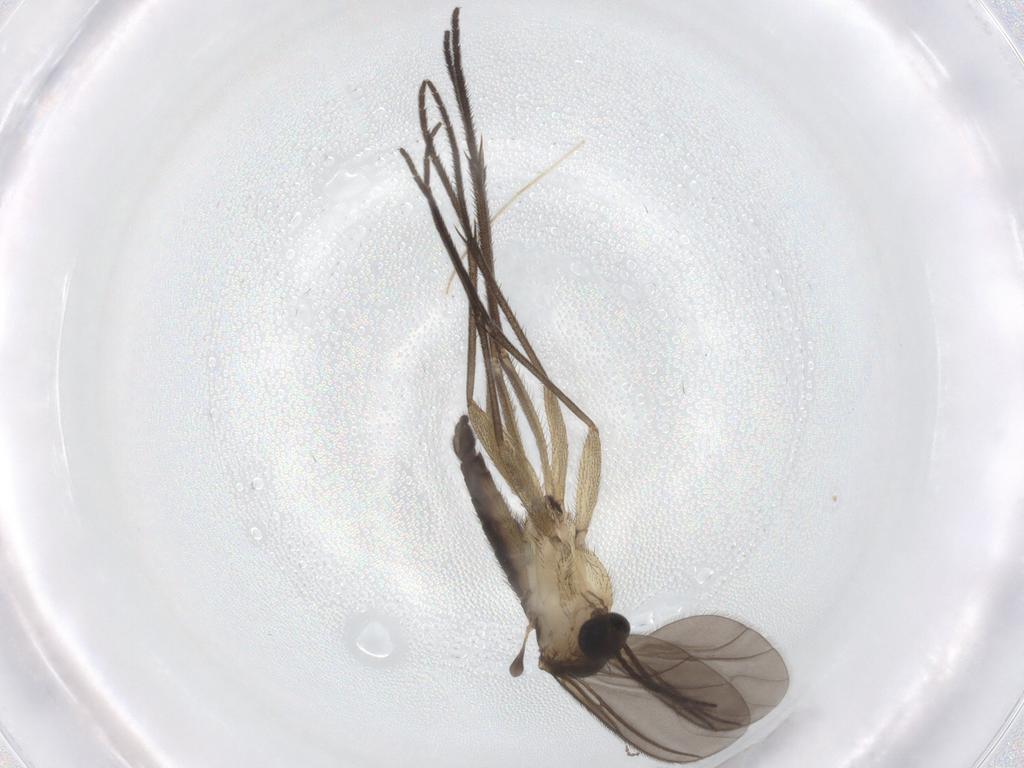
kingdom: Animalia
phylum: Arthropoda
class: Insecta
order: Diptera
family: Sciaridae
